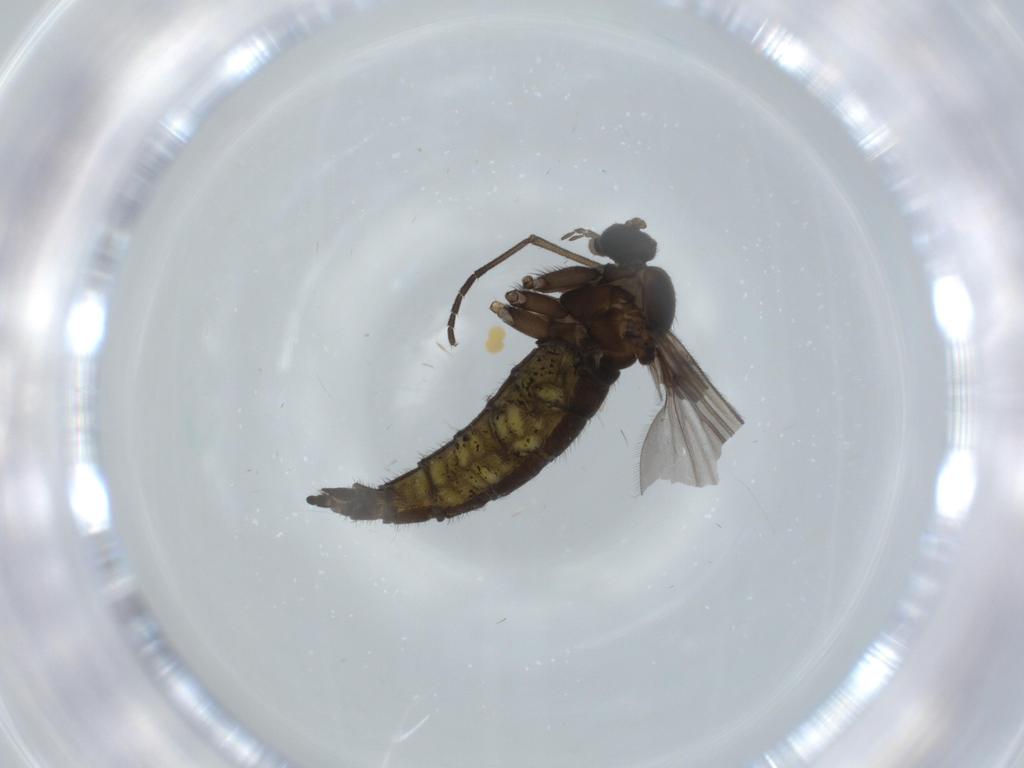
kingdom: Animalia
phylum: Arthropoda
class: Insecta
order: Diptera
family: Sciaridae
